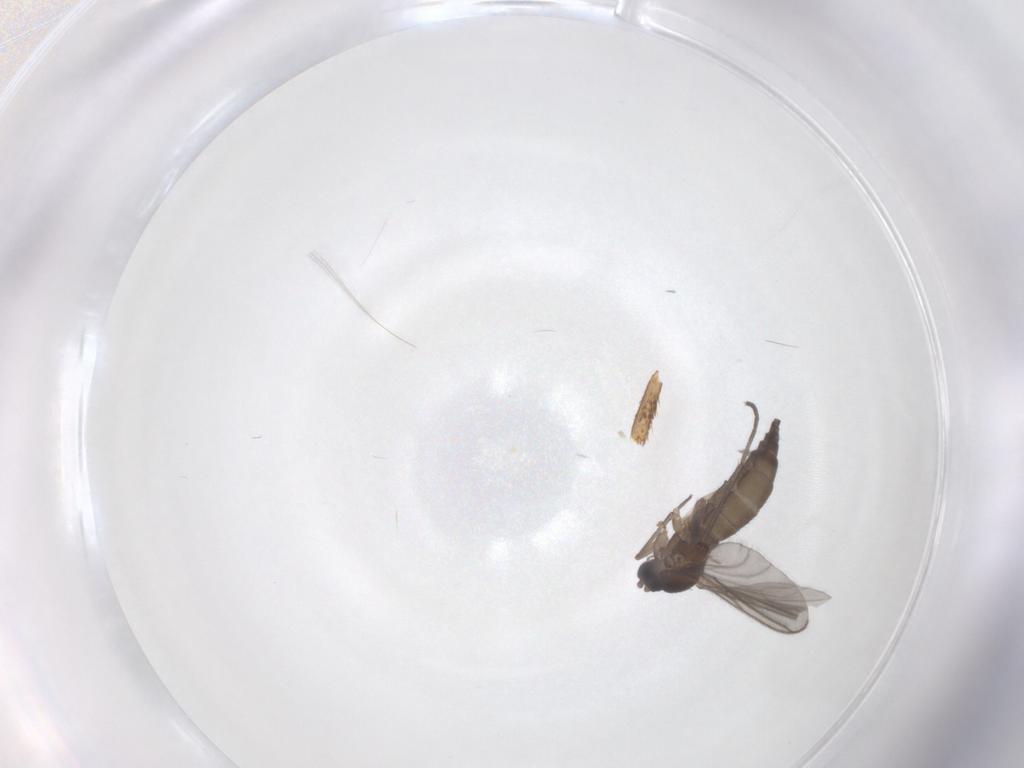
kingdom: Animalia
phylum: Arthropoda
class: Insecta
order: Diptera
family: Sciaridae
